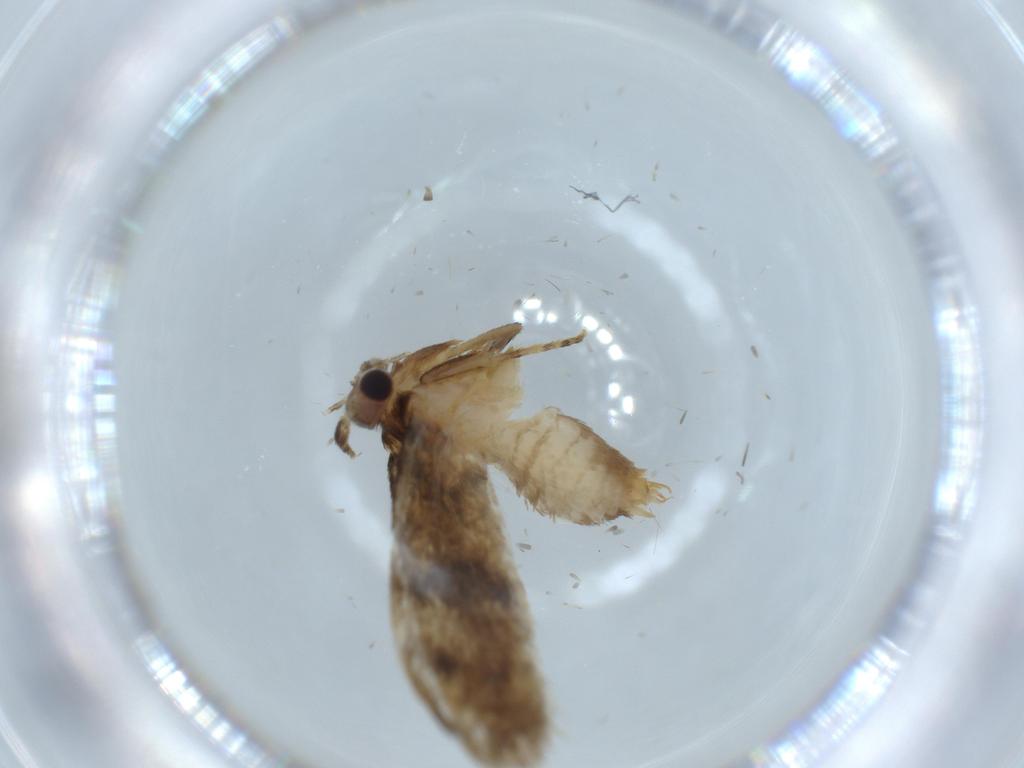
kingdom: Animalia
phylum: Arthropoda
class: Insecta
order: Lepidoptera
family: Tineidae
